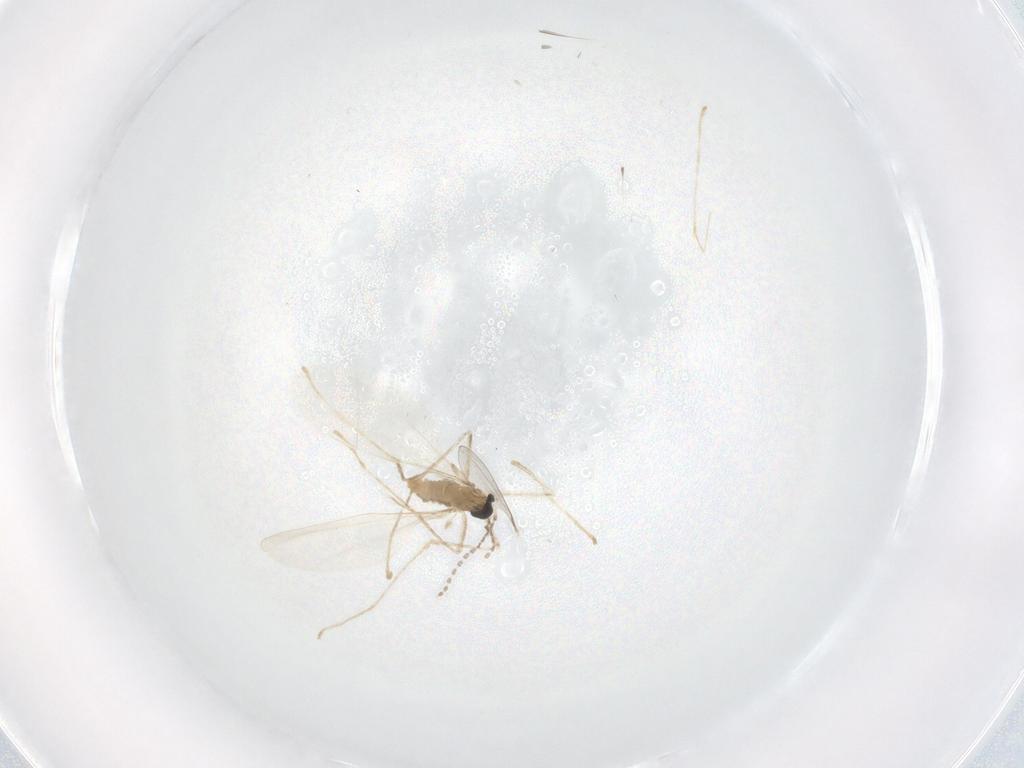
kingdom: Animalia
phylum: Arthropoda
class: Insecta
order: Diptera
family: Cecidomyiidae
